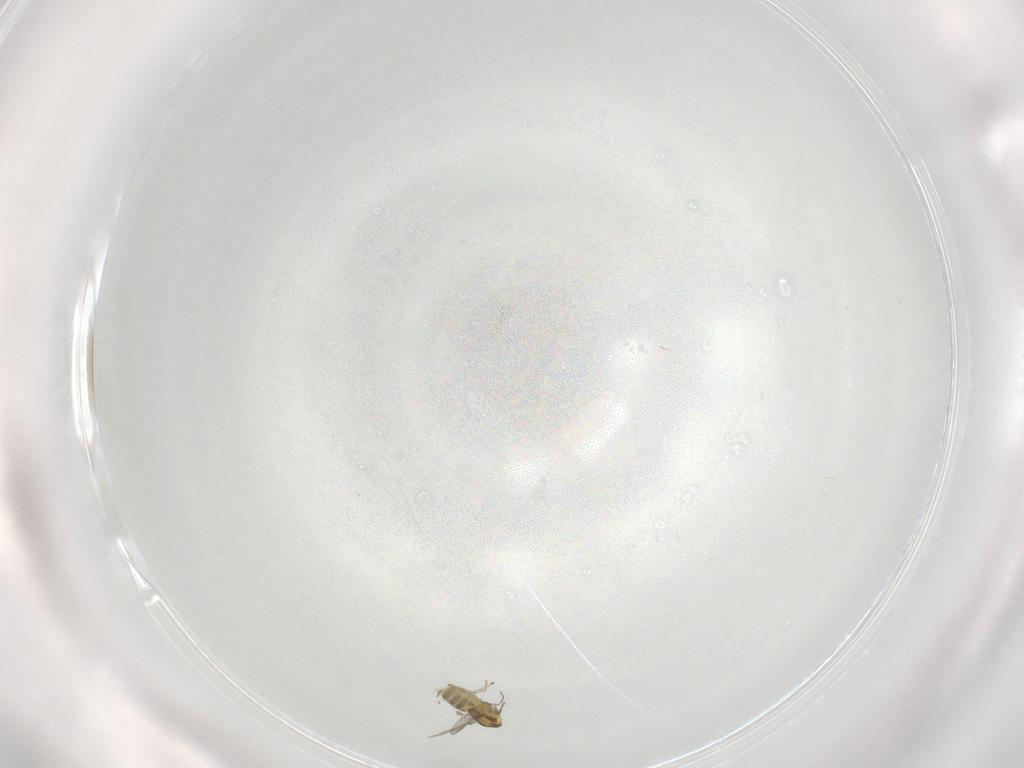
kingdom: Animalia
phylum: Arthropoda
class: Insecta
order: Diptera
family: Chironomidae
